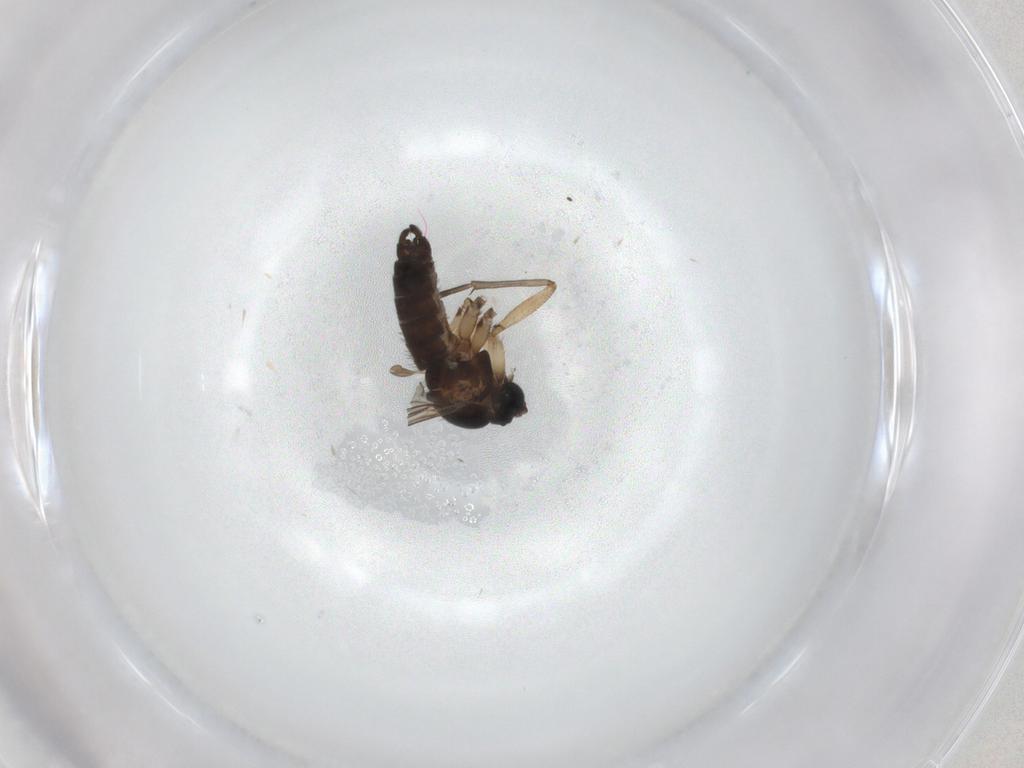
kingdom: Animalia
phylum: Arthropoda
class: Insecta
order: Diptera
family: Sciaridae
